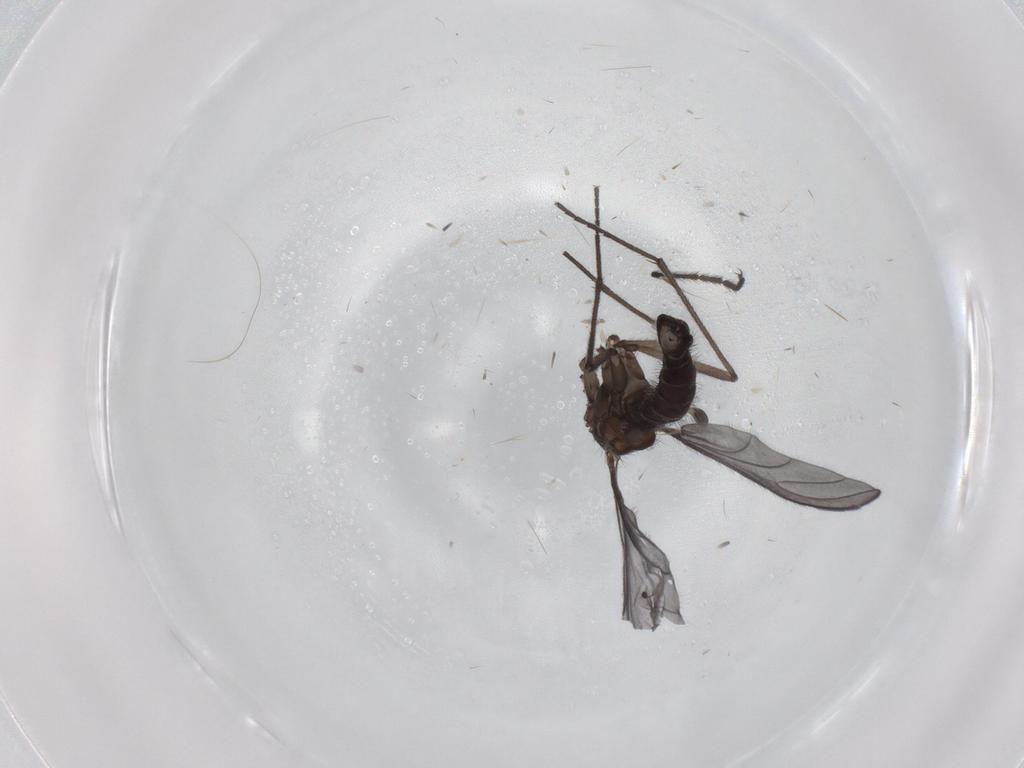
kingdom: Animalia
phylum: Arthropoda
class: Insecta
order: Diptera
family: Sciaridae
